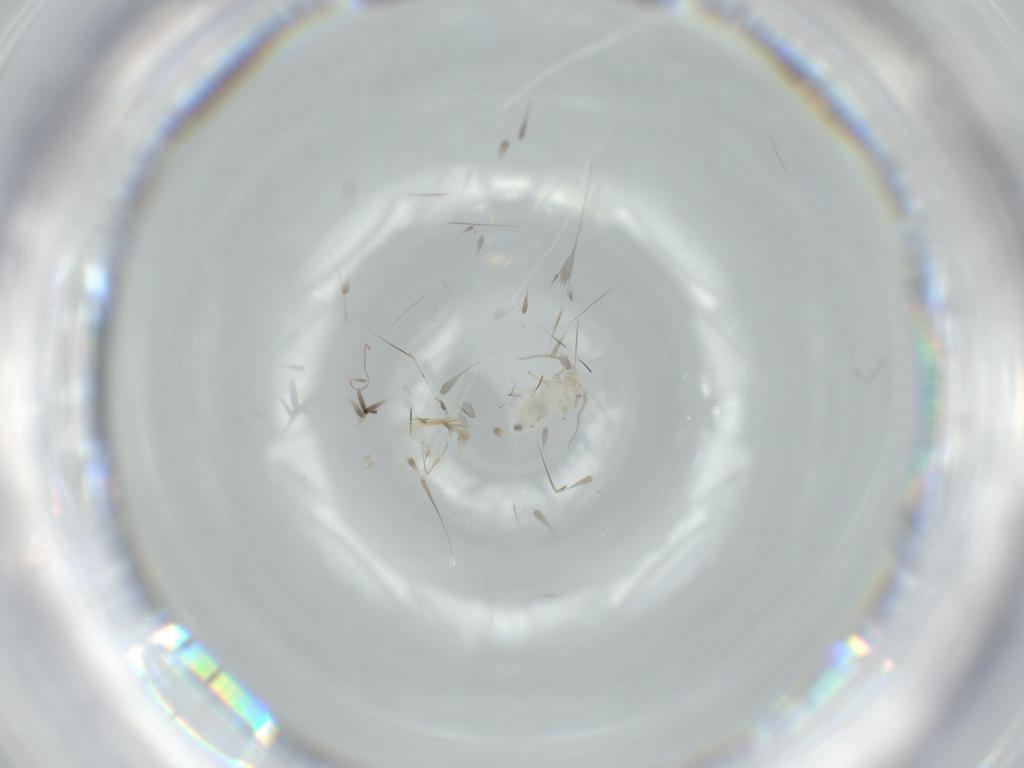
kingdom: Animalia
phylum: Arthropoda
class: Insecta
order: Psocodea
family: Caeciliusidae
